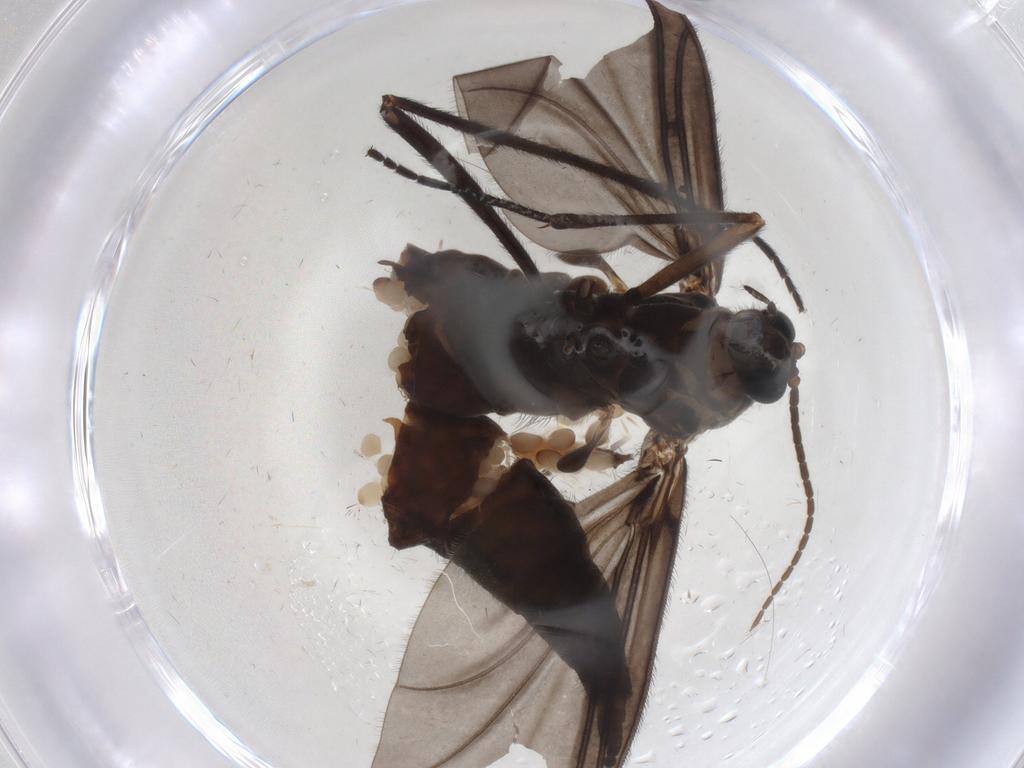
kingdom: Animalia
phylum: Arthropoda
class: Insecta
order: Diptera
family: Sciaridae
